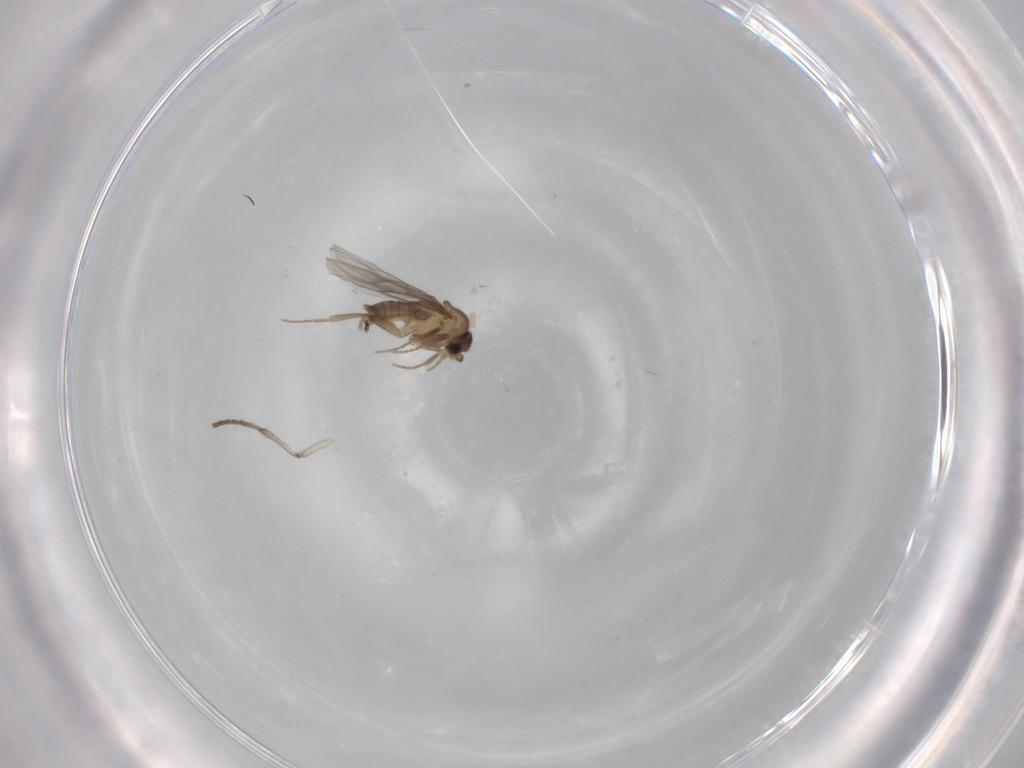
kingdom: Animalia
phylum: Arthropoda
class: Insecta
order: Diptera
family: Psychodidae
